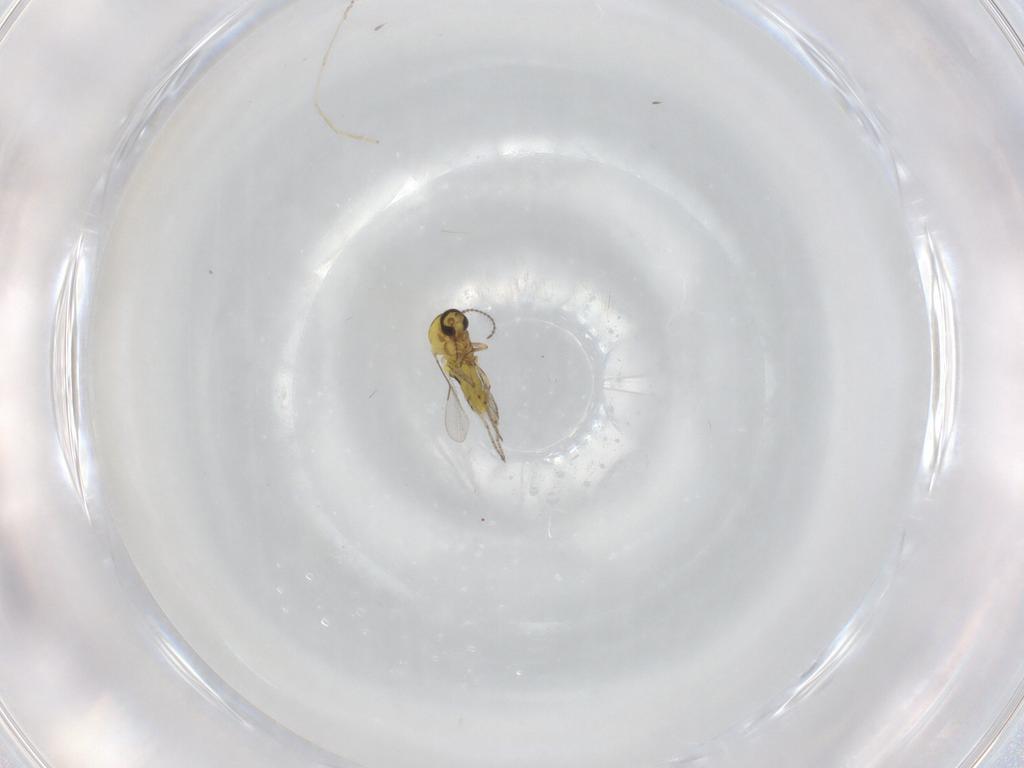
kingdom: Animalia
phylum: Arthropoda
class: Insecta
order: Diptera
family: Ceratopogonidae
